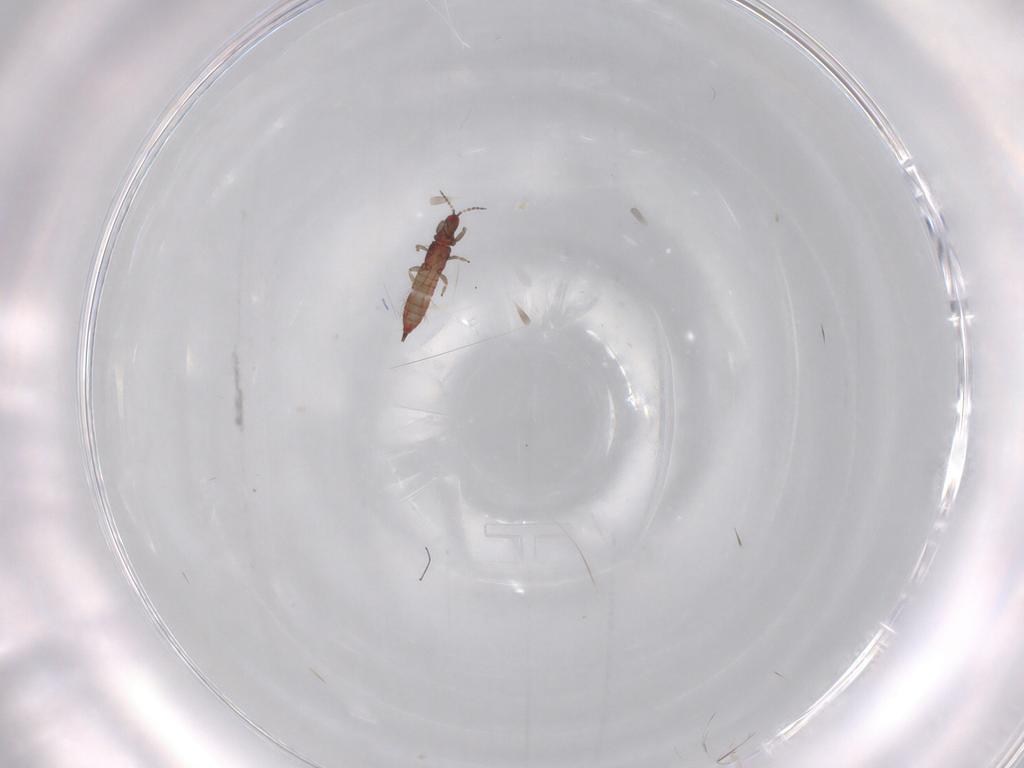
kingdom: Animalia
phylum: Arthropoda
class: Insecta
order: Thysanoptera
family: Phlaeothripidae
